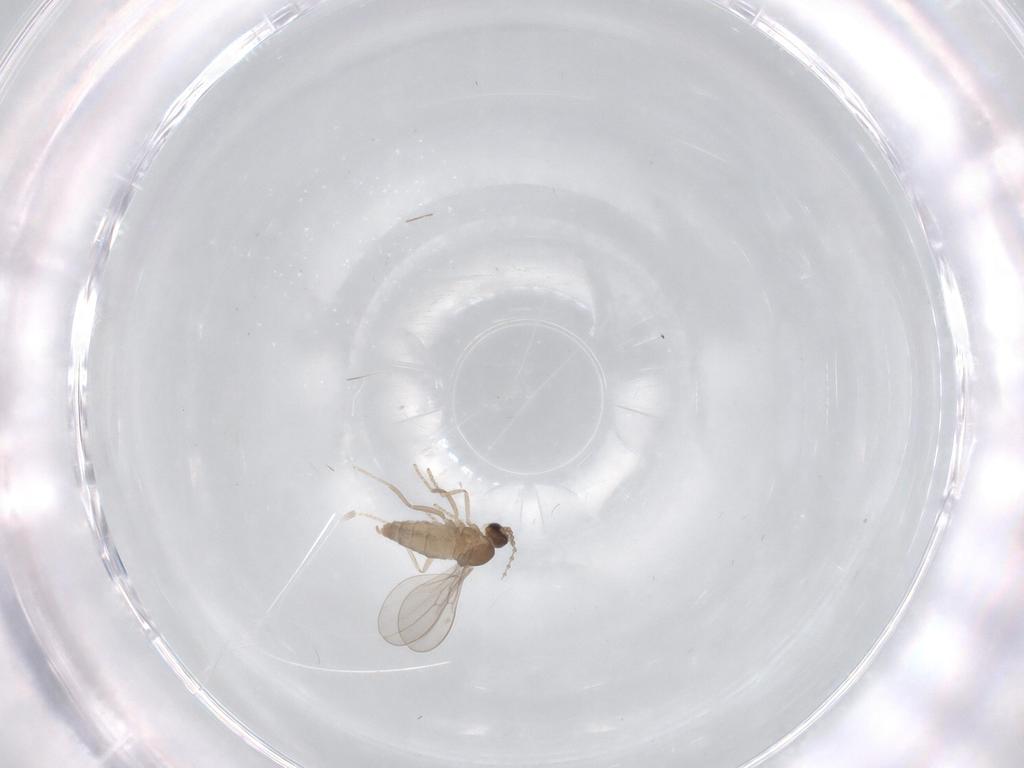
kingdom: Animalia
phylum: Arthropoda
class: Insecta
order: Diptera
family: Cecidomyiidae
